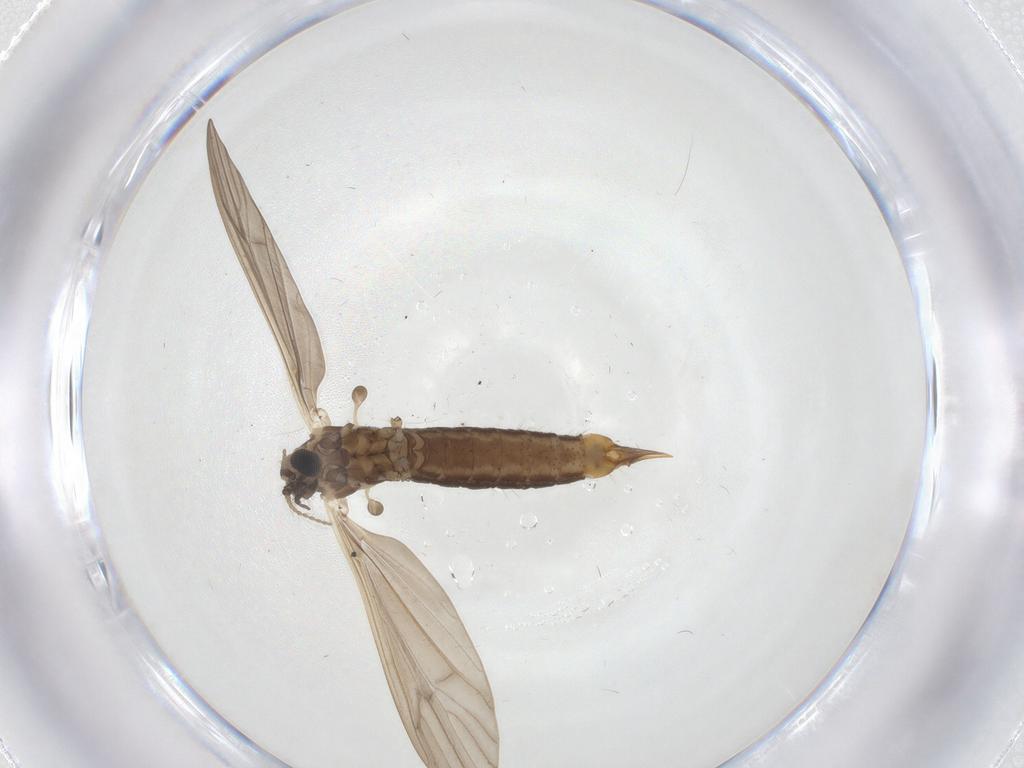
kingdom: Animalia
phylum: Arthropoda
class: Insecta
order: Diptera
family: Limoniidae
